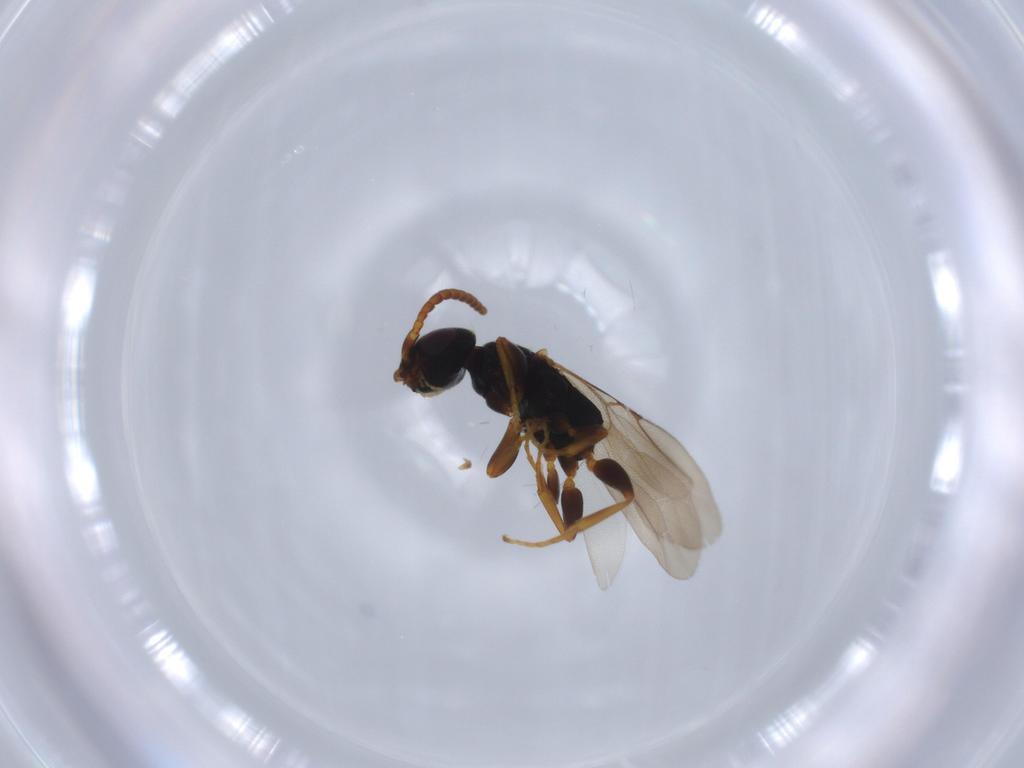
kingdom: Animalia
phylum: Arthropoda
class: Insecta
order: Hymenoptera
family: Bethylidae
